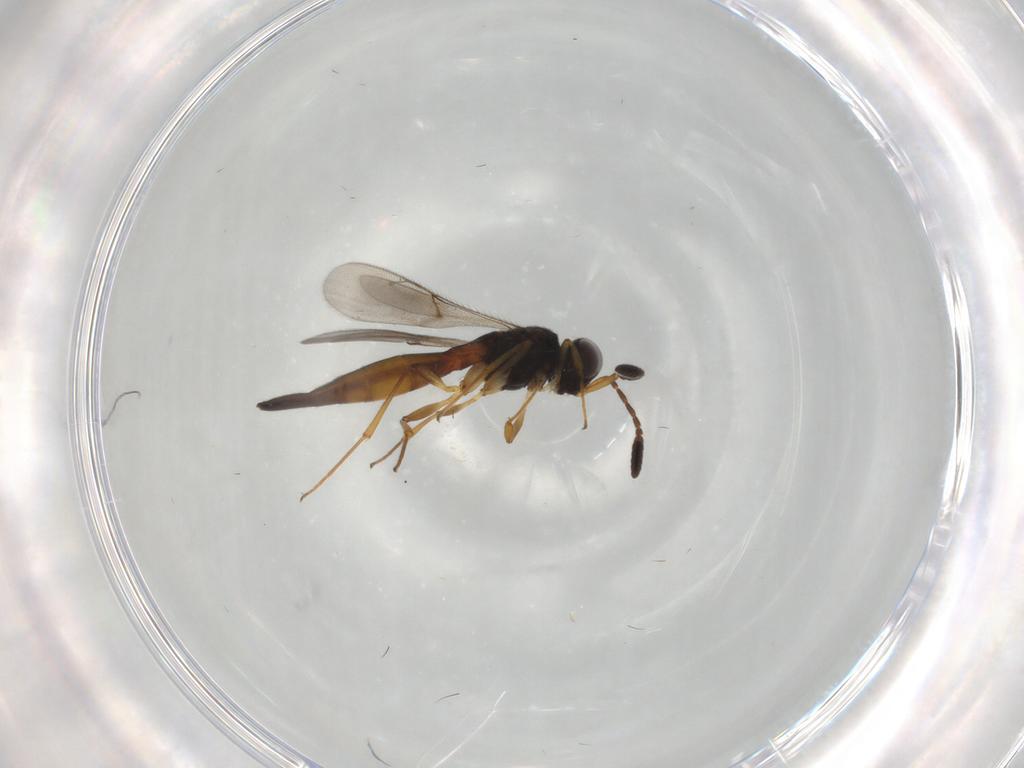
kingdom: Animalia
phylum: Arthropoda
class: Insecta
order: Hymenoptera
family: Scelionidae
